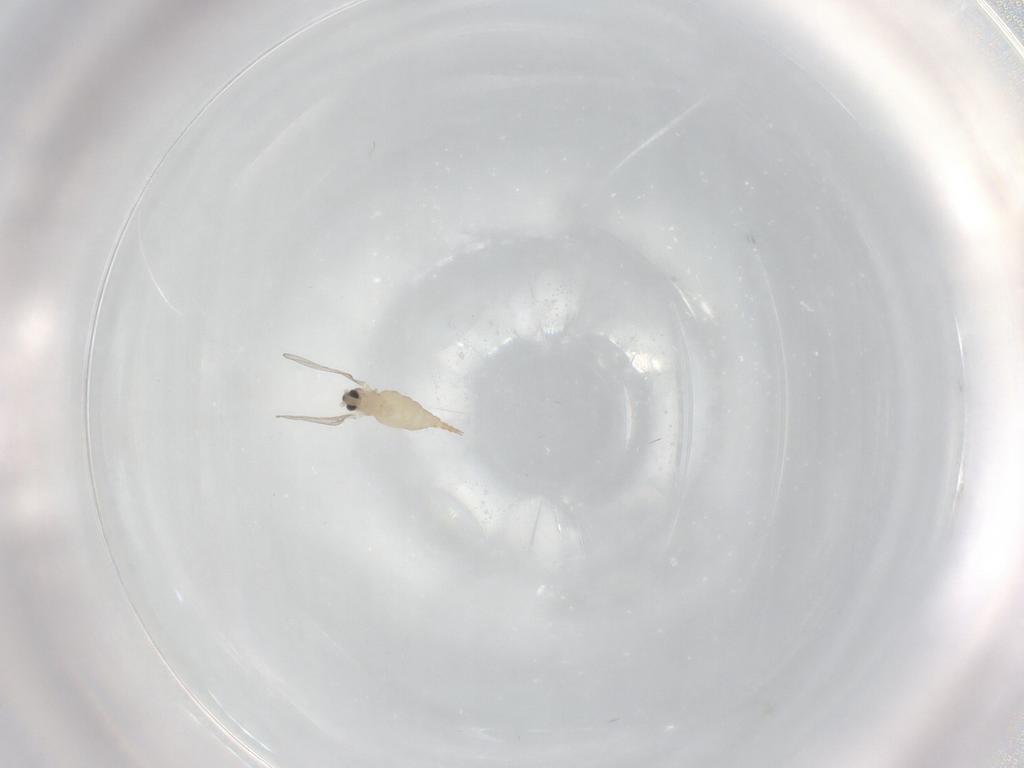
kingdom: Animalia
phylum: Arthropoda
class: Insecta
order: Diptera
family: Cecidomyiidae
